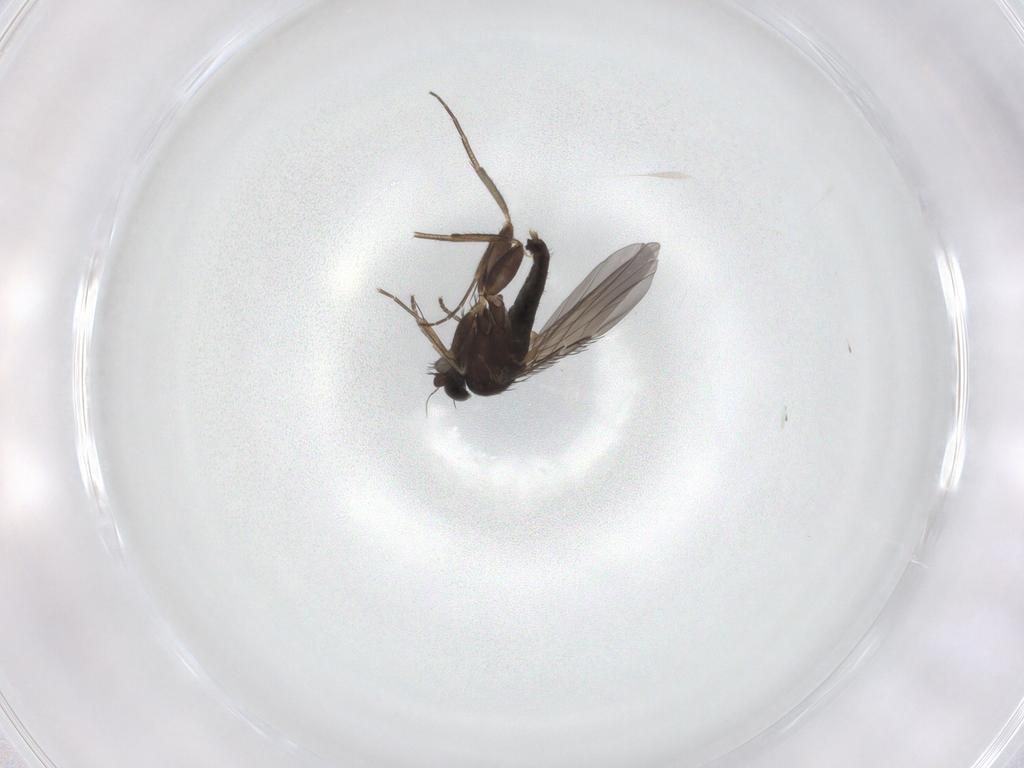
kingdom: Animalia
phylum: Arthropoda
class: Insecta
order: Diptera
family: Phoridae
